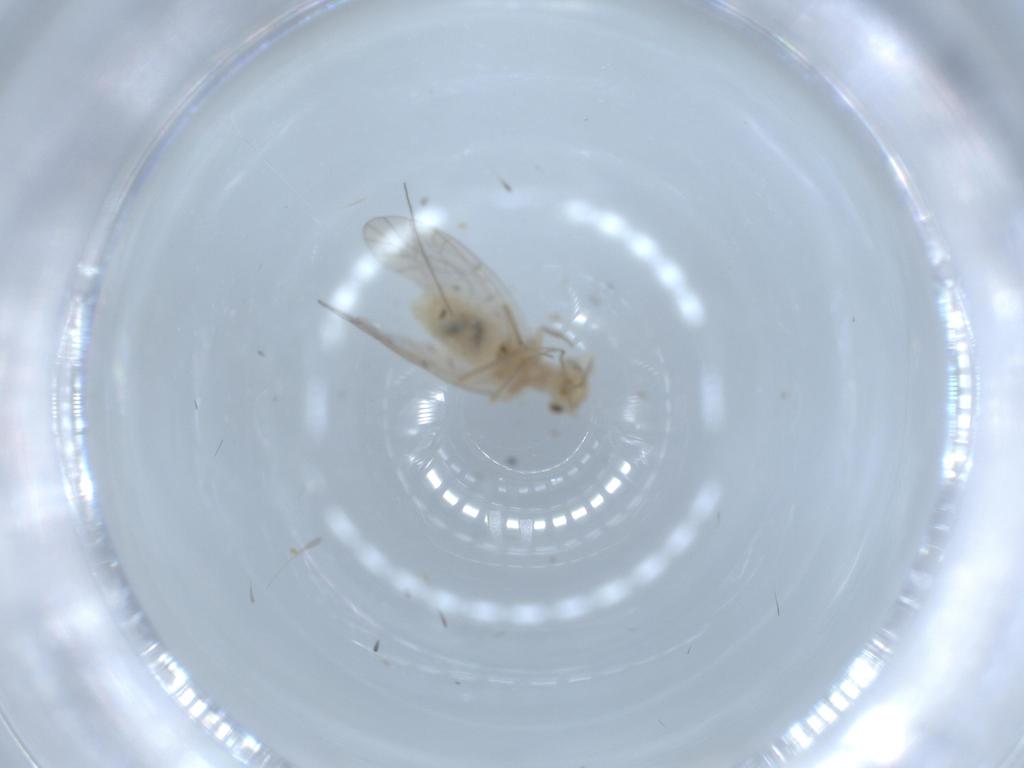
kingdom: Animalia
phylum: Arthropoda
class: Insecta
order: Psocodea
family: Lachesillidae
